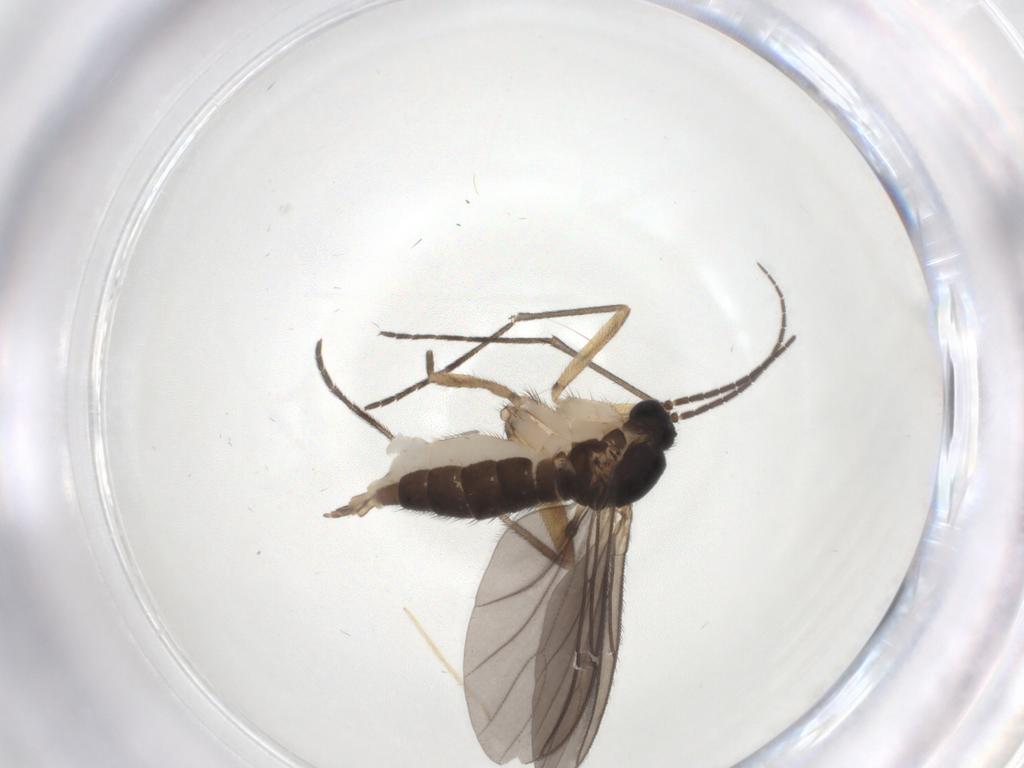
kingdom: Animalia
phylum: Arthropoda
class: Insecta
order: Diptera
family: Sciaridae
